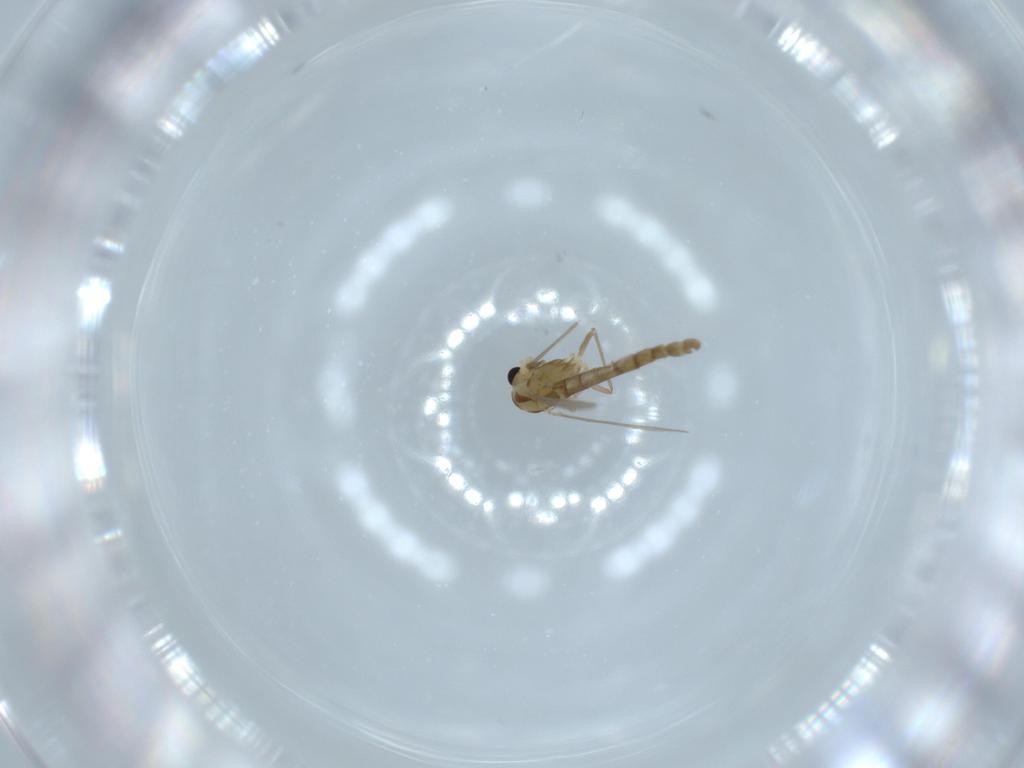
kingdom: Animalia
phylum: Arthropoda
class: Insecta
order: Diptera
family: Chironomidae
